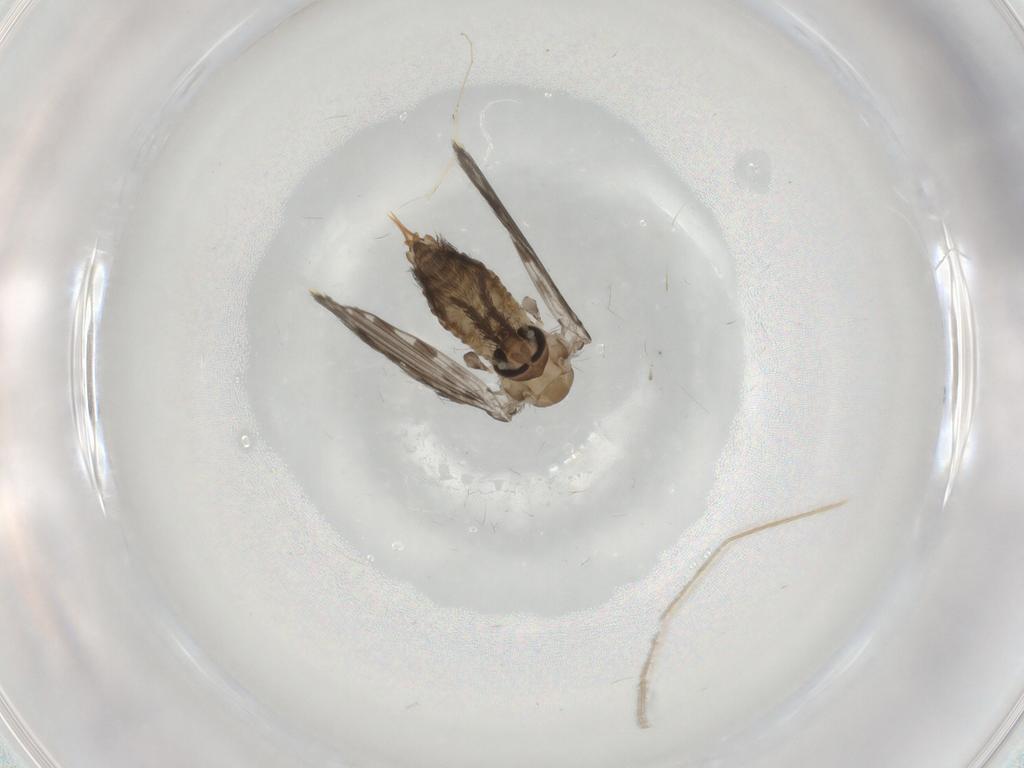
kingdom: Animalia
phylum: Arthropoda
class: Insecta
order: Diptera
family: Psychodidae
